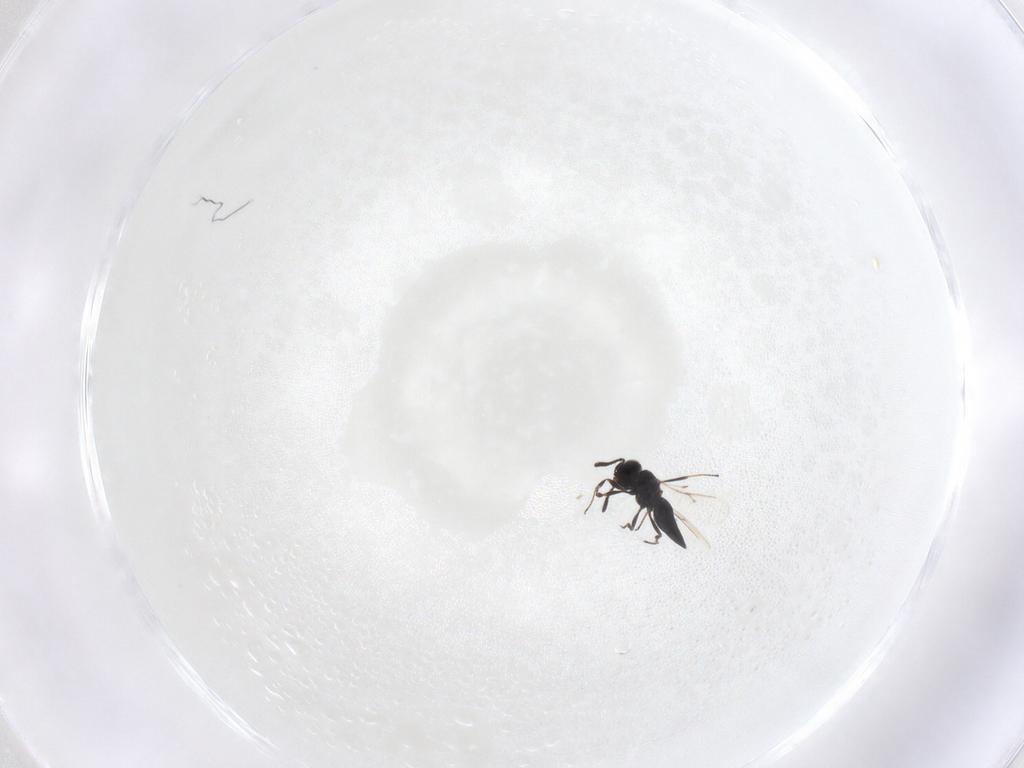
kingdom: Animalia
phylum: Arthropoda
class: Insecta
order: Hymenoptera
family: Scelionidae
